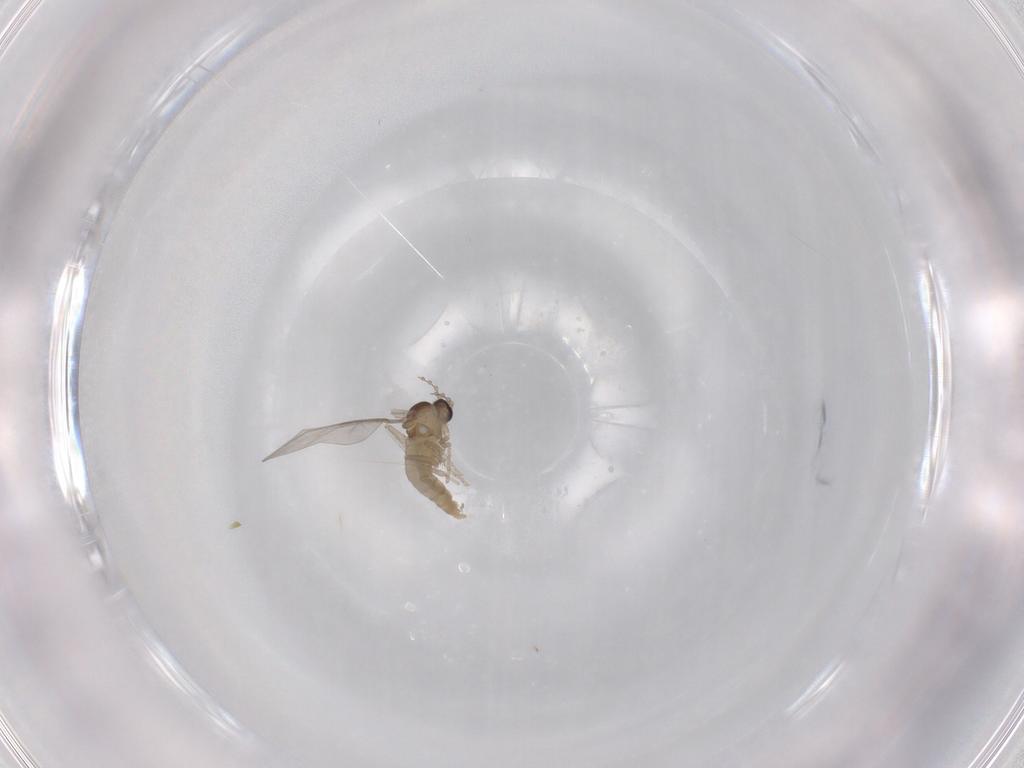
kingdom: Animalia
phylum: Arthropoda
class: Insecta
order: Diptera
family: Cecidomyiidae
